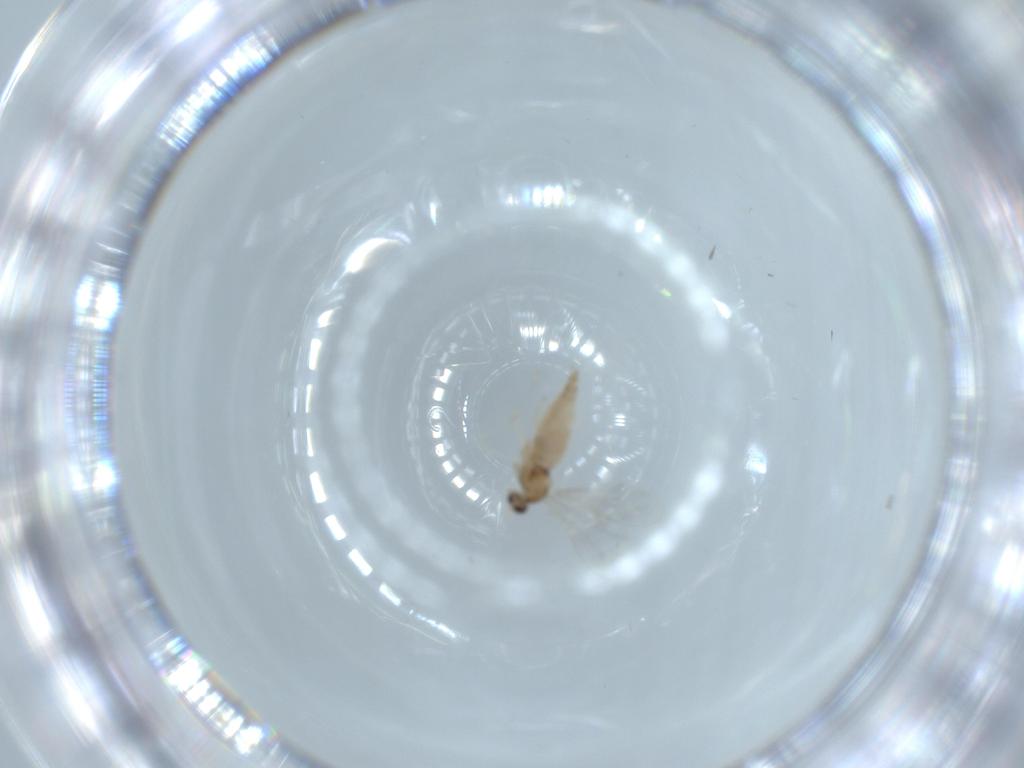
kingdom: Animalia
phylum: Arthropoda
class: Insecta
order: Diptera
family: Cecidomyiidae
